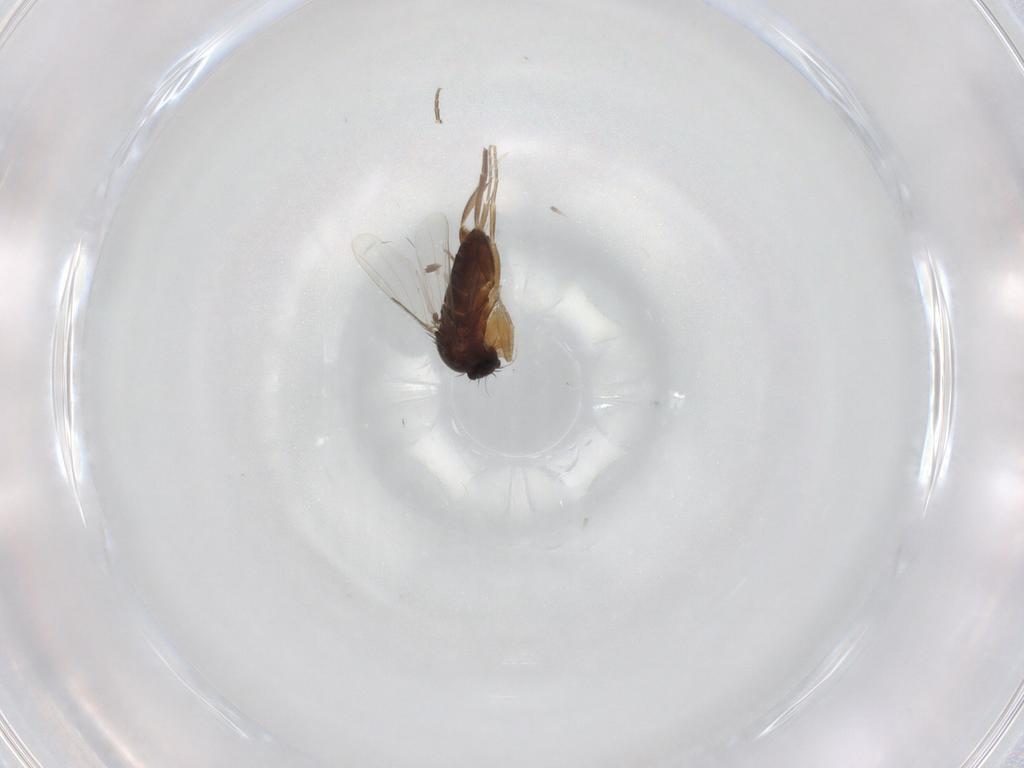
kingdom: Animalia
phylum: Arthropoda
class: Insecta
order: Diptera
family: Phoridae
